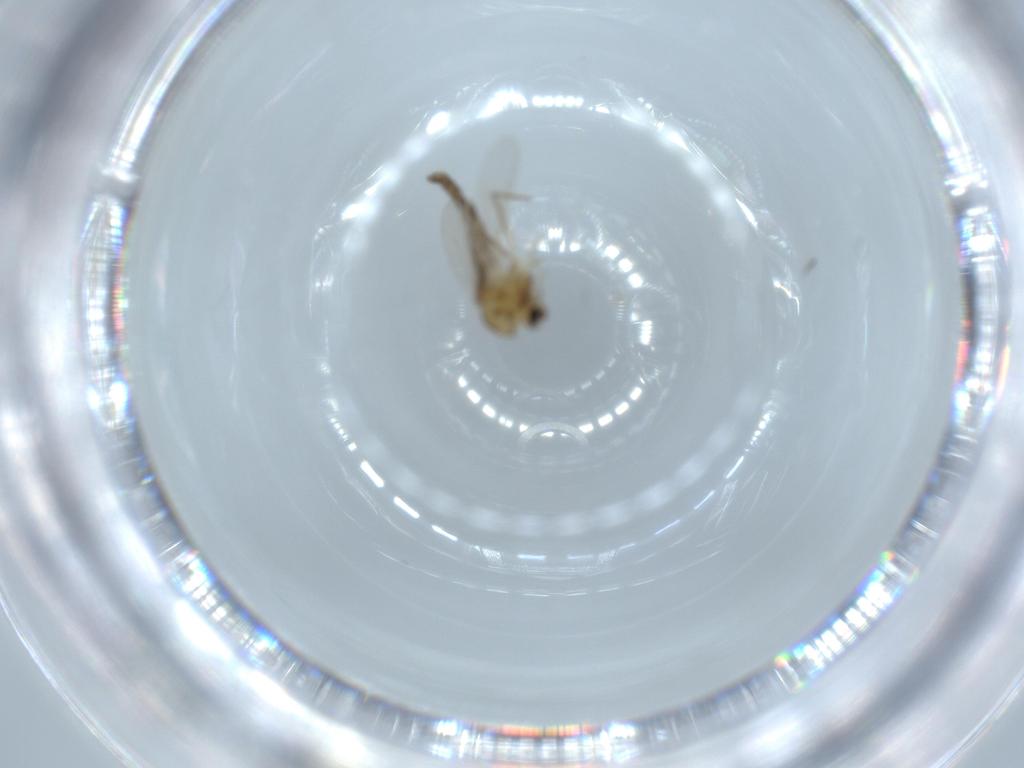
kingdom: Animalia
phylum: Arthropoda
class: Insecta
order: Diptera
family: Chironomidae
